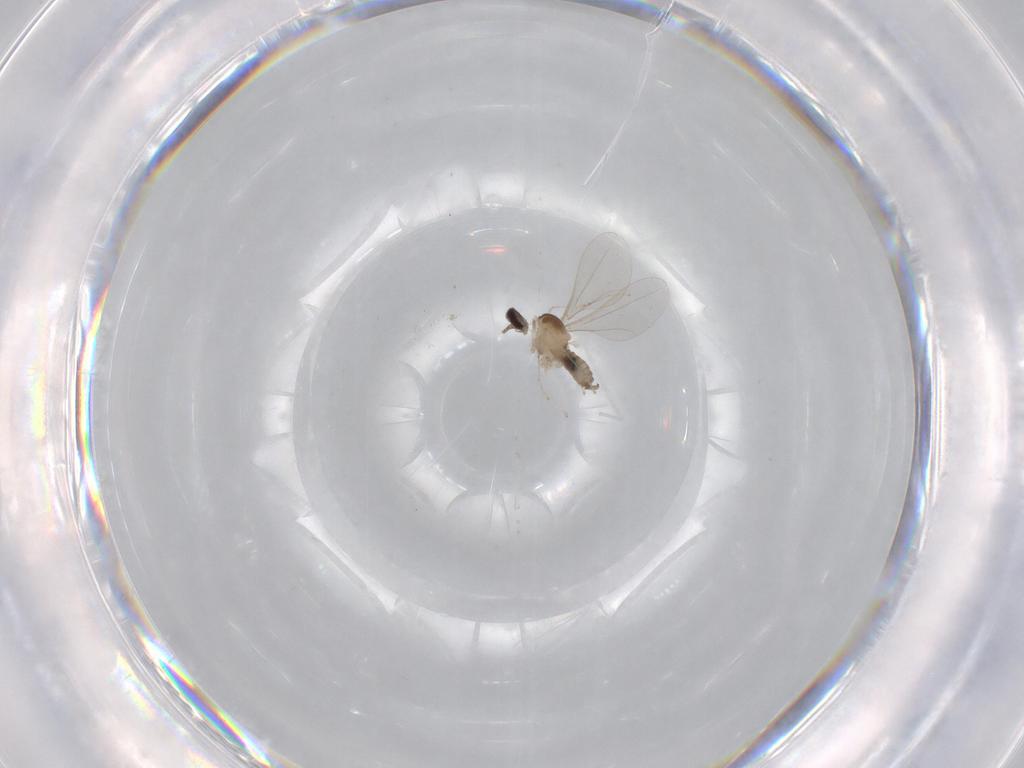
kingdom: Animalia
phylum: Arthropoda
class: Insecta
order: Diptera
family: Cecidomyiidae
